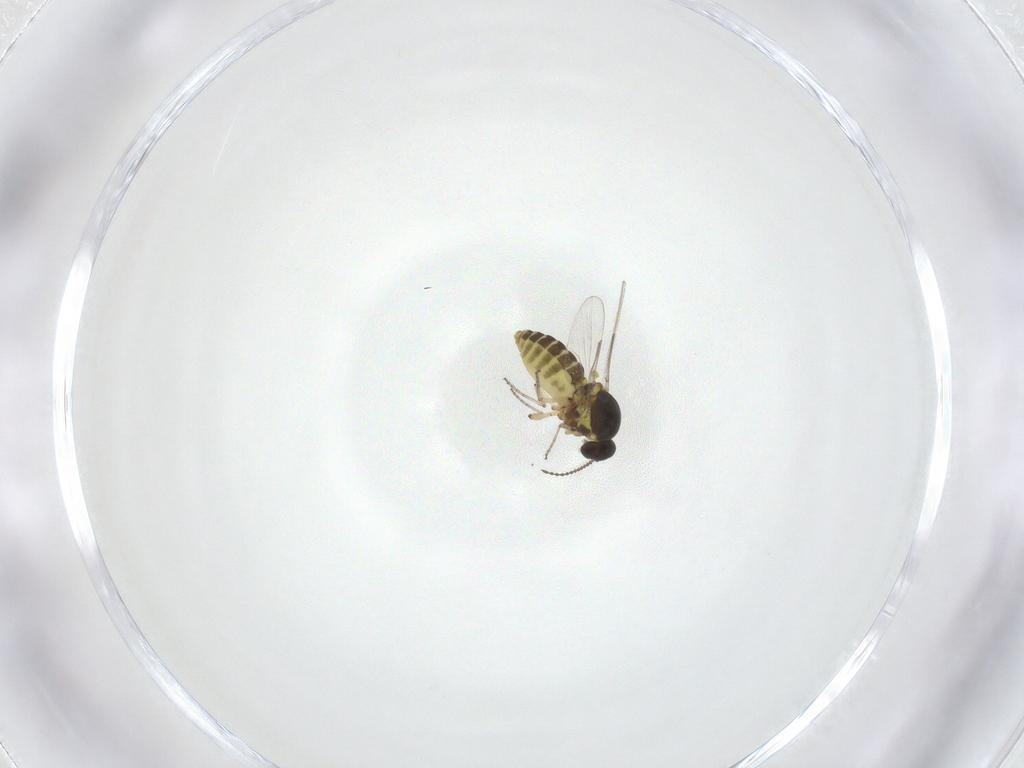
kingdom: Animalia
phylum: Arthropoda
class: Insecta
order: Diptera
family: Ceratopogonidae
